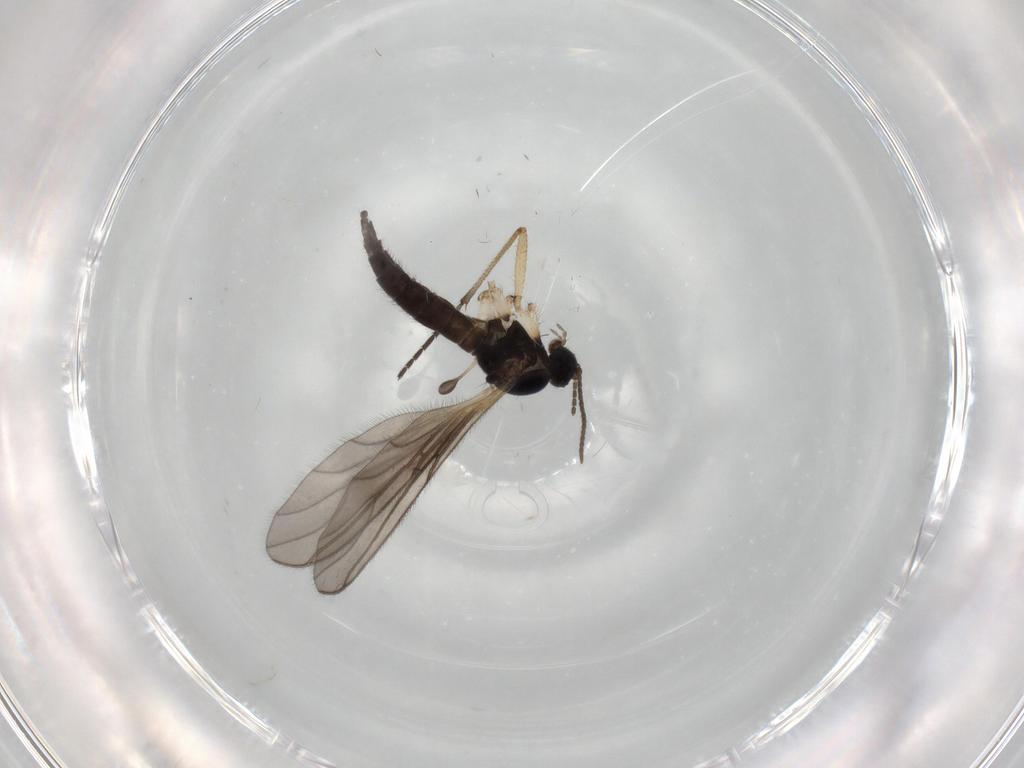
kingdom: Animalia
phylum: Arthropoda
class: Insecta
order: Diptera
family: Sciaridae
